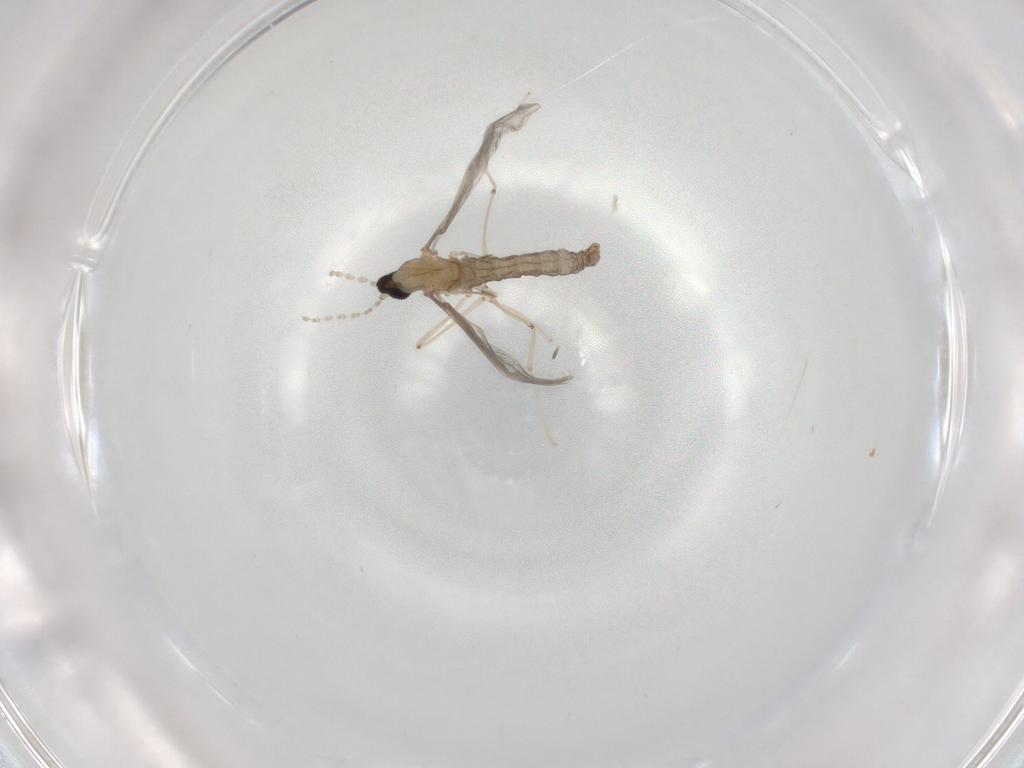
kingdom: Animalia
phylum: Arthropoda
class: Insecta
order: Diptera
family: Cecidomyiidae
